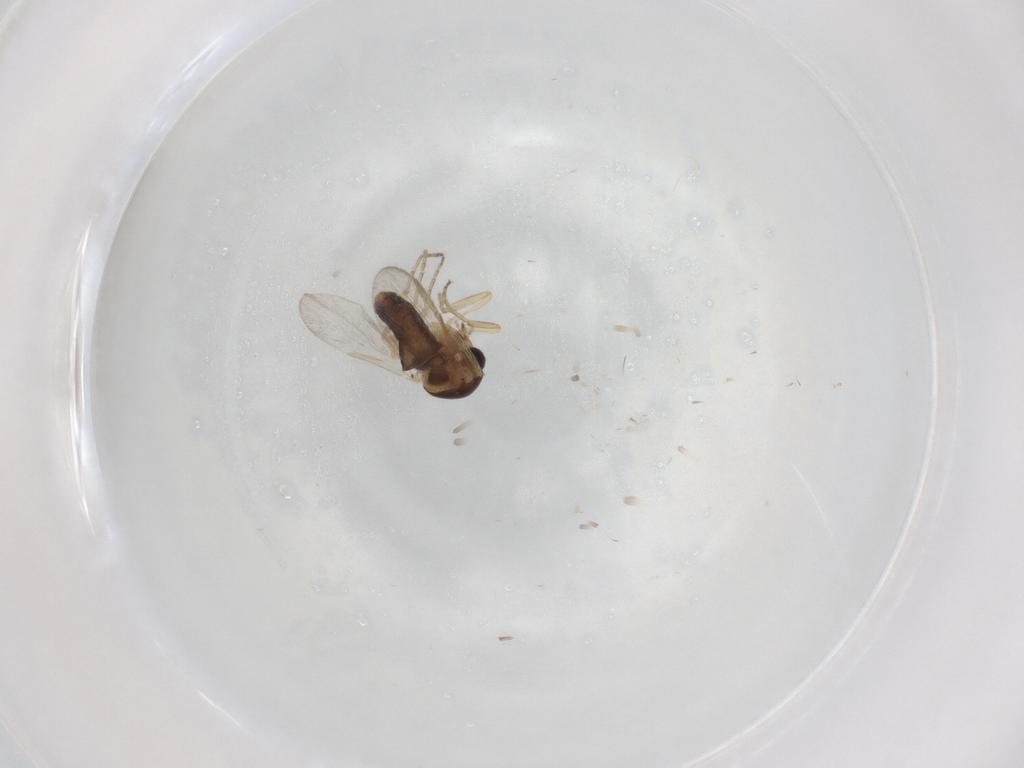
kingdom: Animalia
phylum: Arthropoda
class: Insecta
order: Diptera
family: Ceratopogonidae
